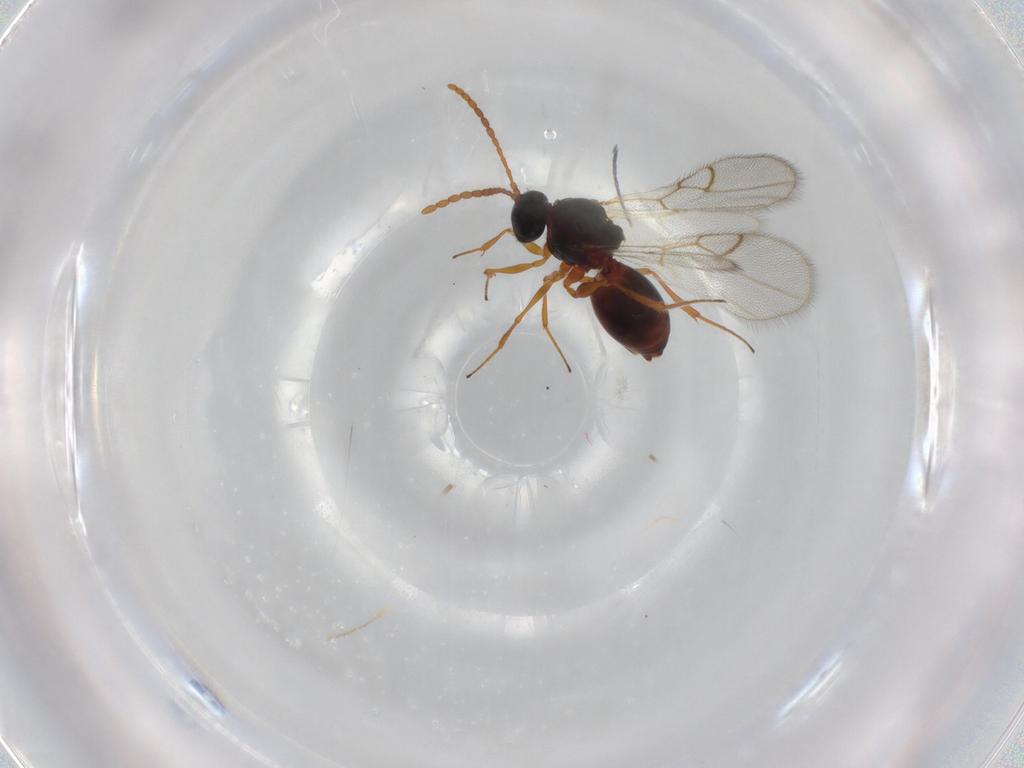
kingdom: Animalia
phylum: Arthropoda
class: Insecta
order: Hymenoptera
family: Figitidae
